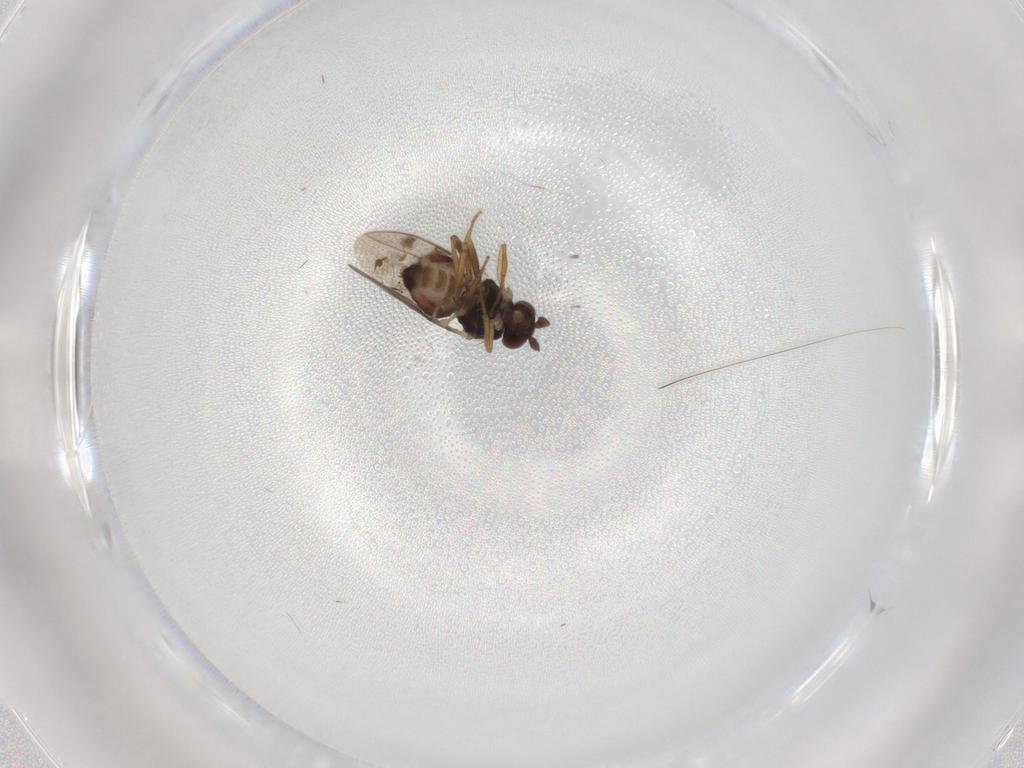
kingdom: Animalia
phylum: Arthropoda
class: Insecta
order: Diptera
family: Sphaeroceridae
